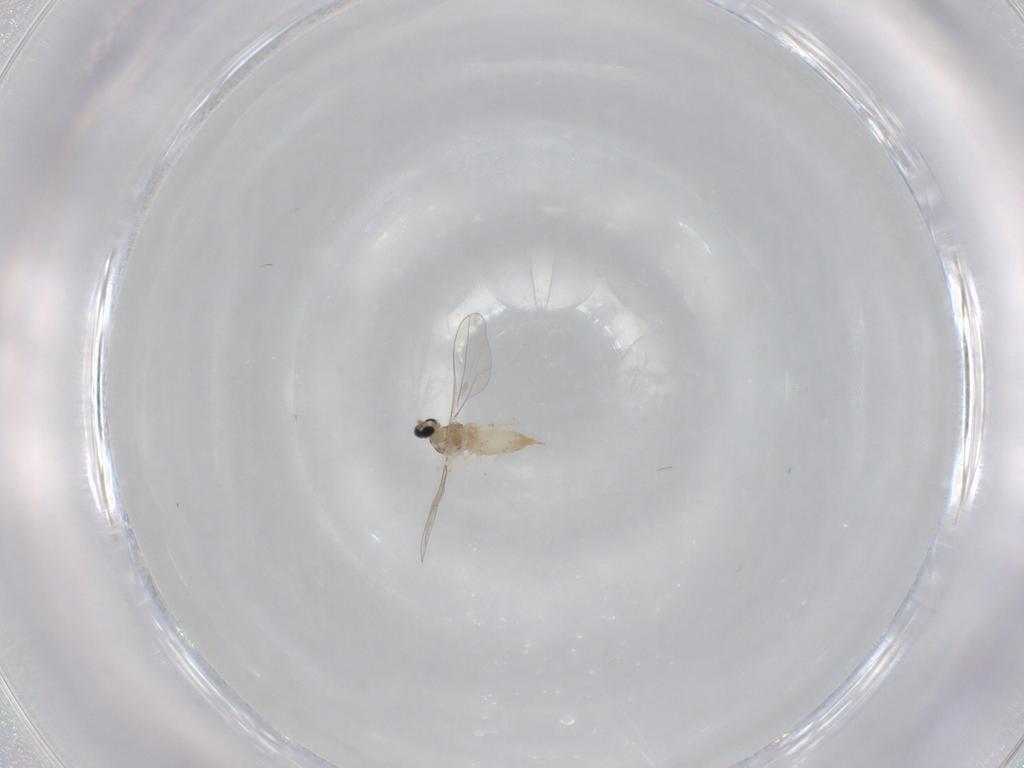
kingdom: Animalia
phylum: Arthropoda
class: Insecta
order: Diptera
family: Cecidomyiidae
